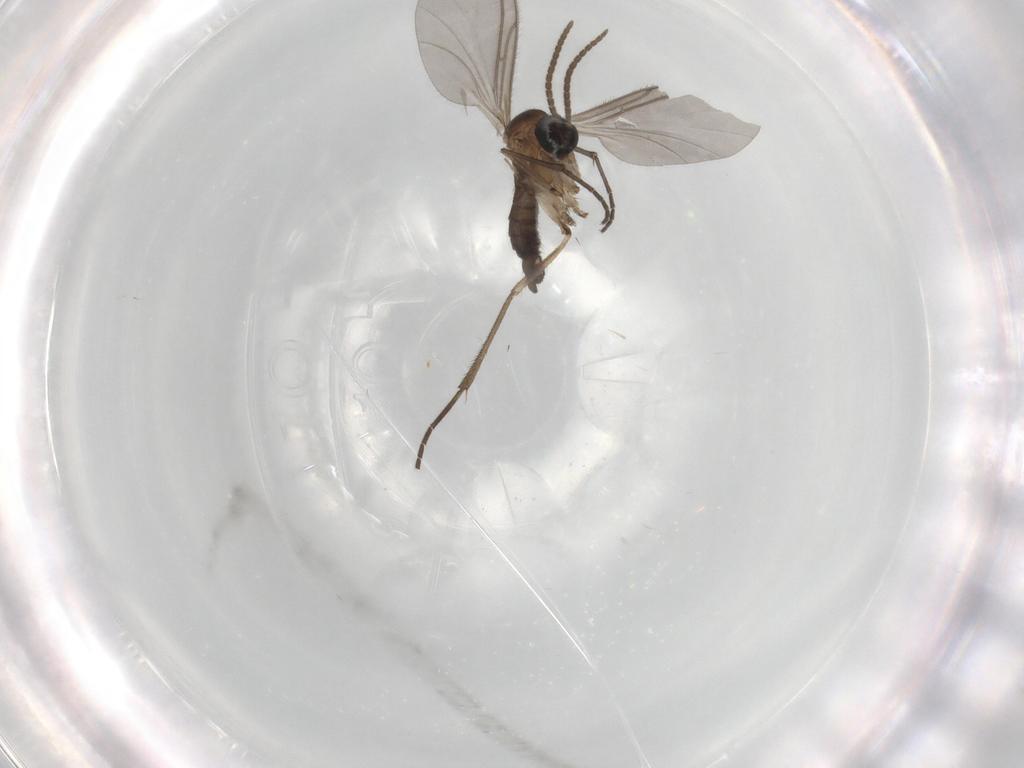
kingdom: Animalia
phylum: Arthropoda
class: Insecta
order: Diptera
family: Sciaridae
